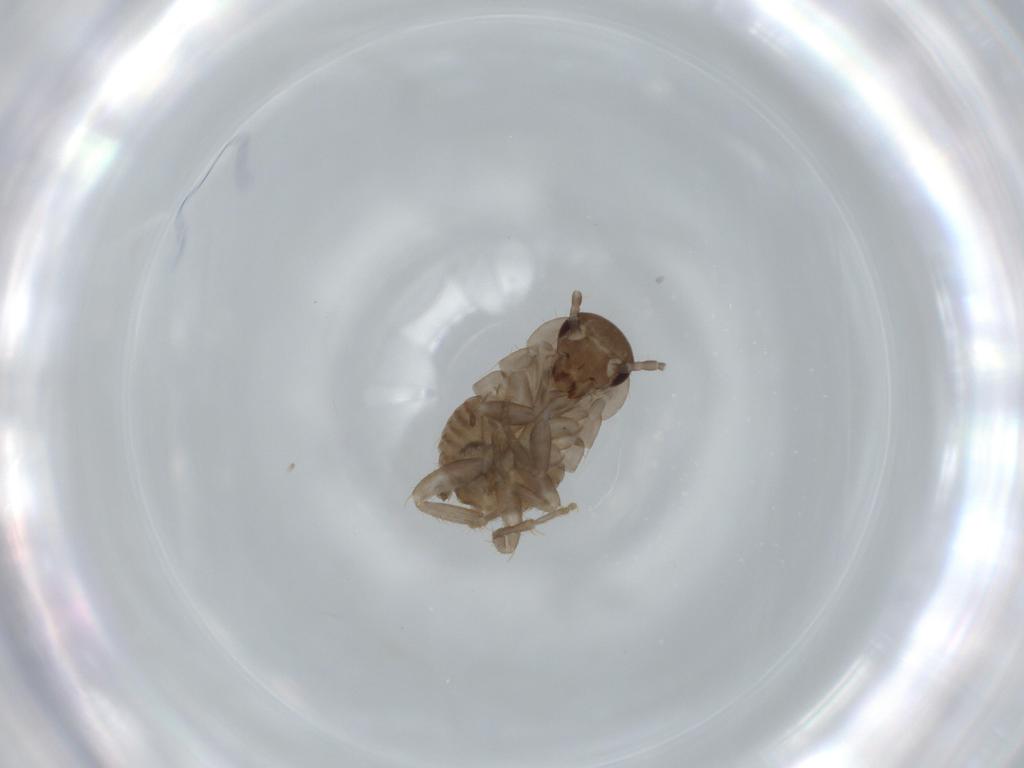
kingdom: Animalia
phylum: Arthropoda
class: Insecta
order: Blattodea
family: Ectobiidae
